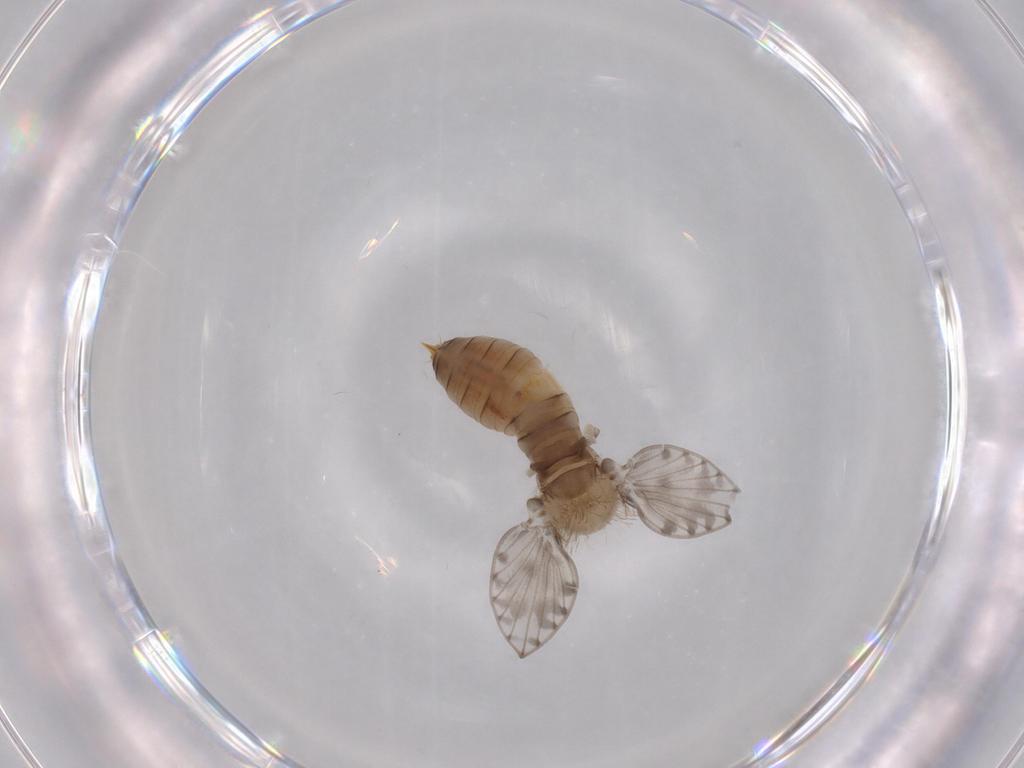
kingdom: Animalia
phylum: Arthropoda
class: Insecta
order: Diptera
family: Psychodidae
